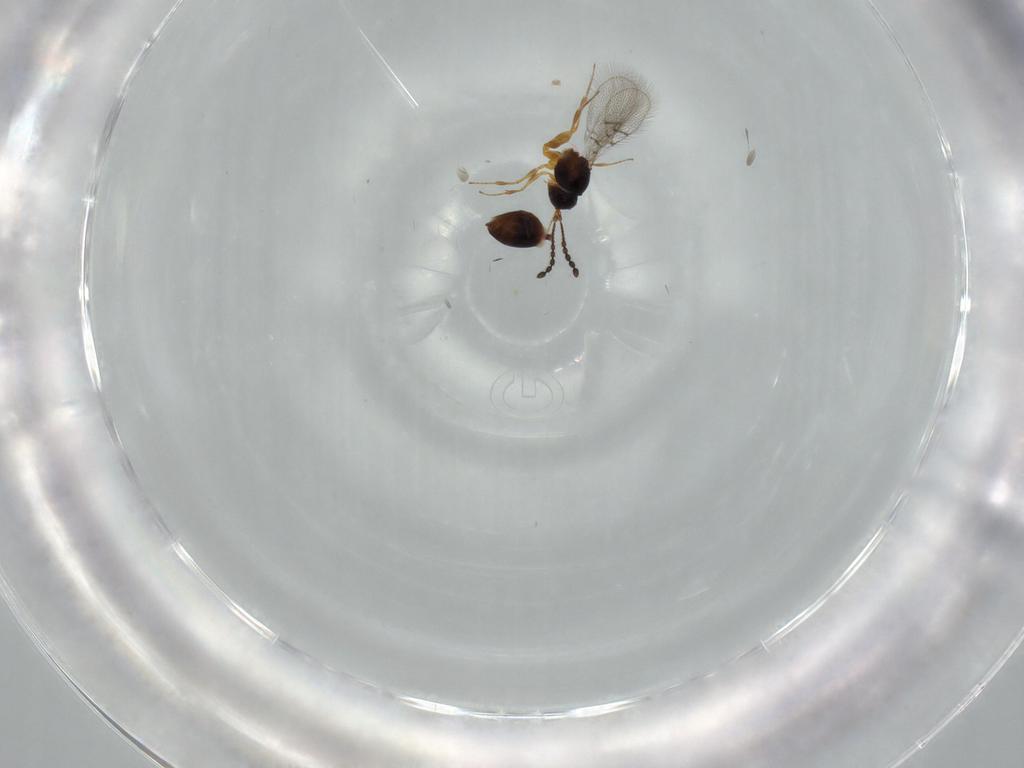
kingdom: Animalia
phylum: Arthropoda
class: Insecta
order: Hymenoptera
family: Figitidae
